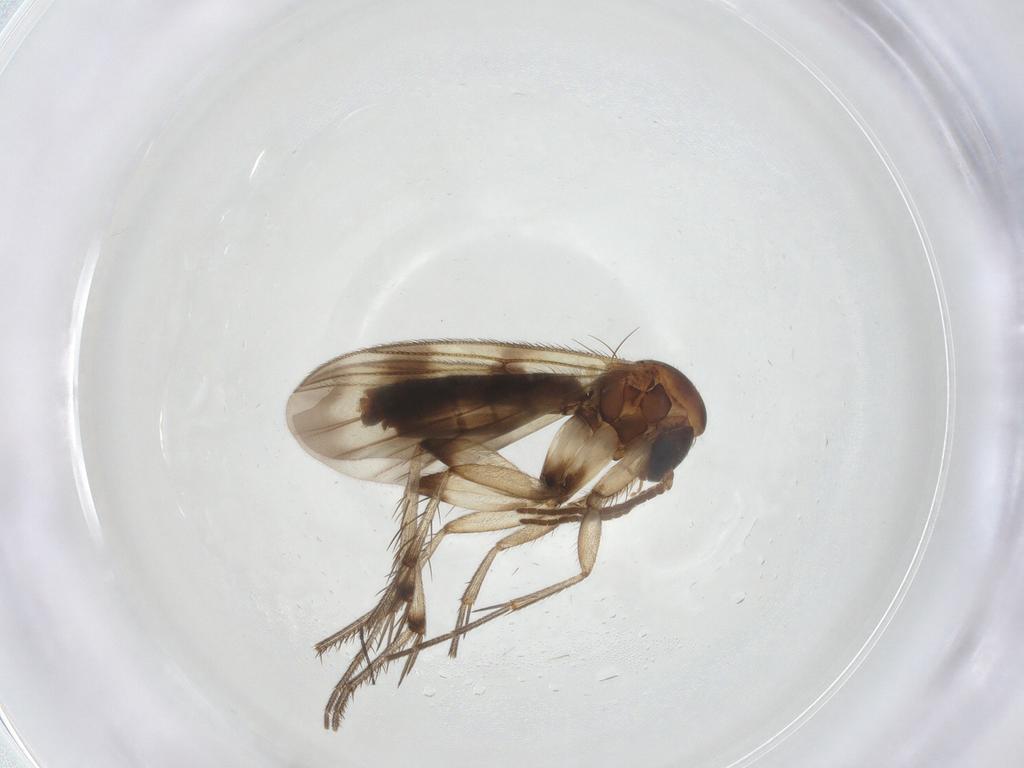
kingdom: Animalia
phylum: Arthropoda
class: Insecta
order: Diptera
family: Mycetophilidae
